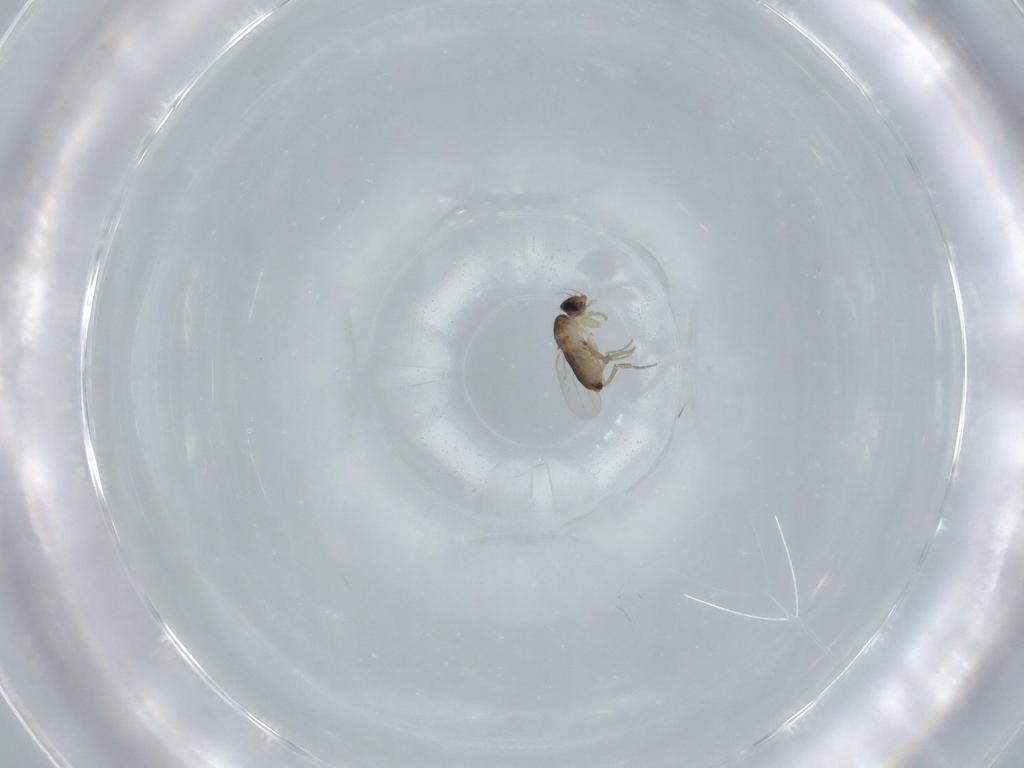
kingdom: Animalia
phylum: Arthropoda
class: Insecta
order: Diptera
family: Phoridae
